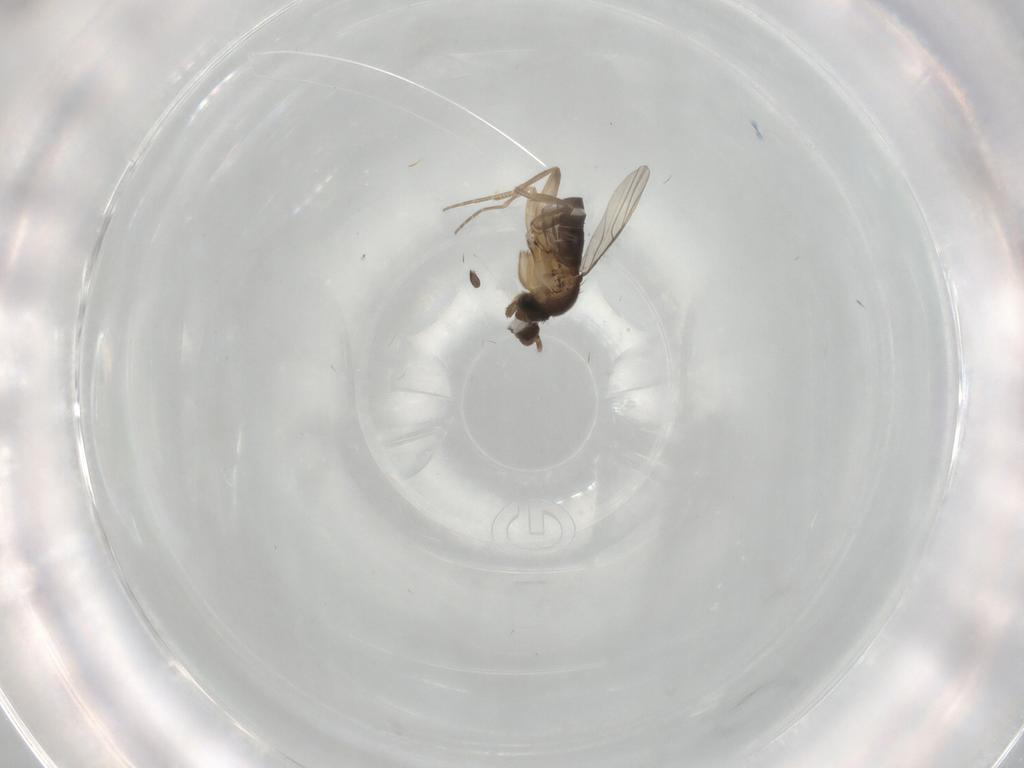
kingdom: Animalia
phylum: Arthropoda
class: Insecta
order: Diptera
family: Phoridae
